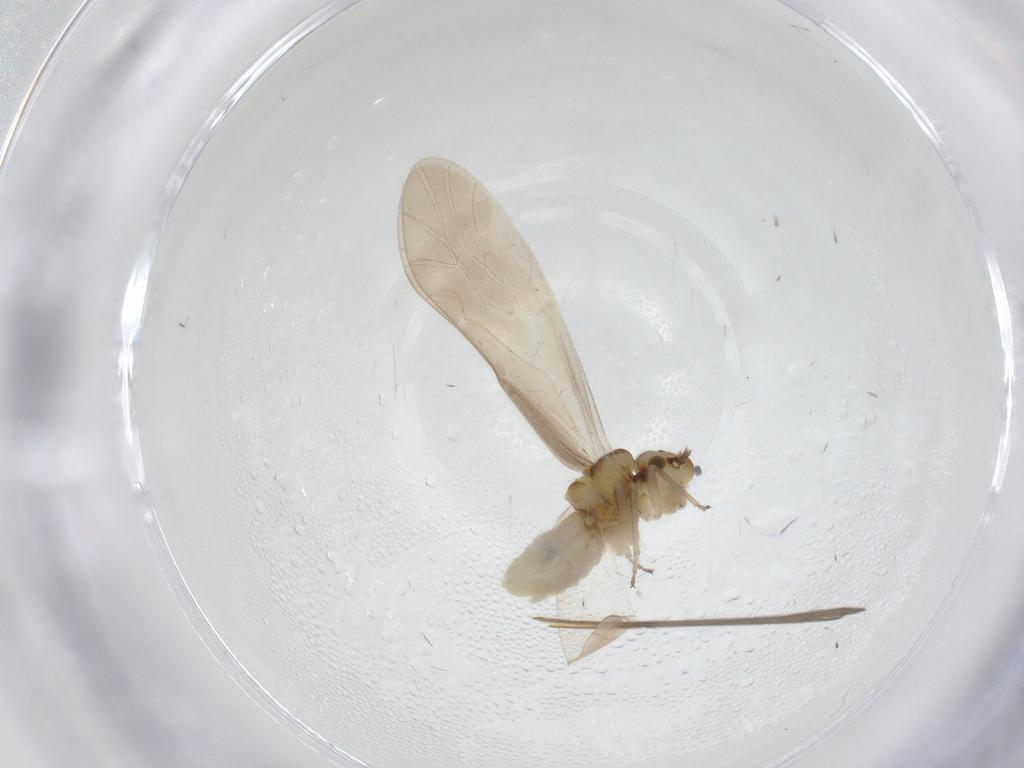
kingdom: Animalia
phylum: Arthropoda
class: Insecta
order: Psocodea
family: Caeciliusidae
